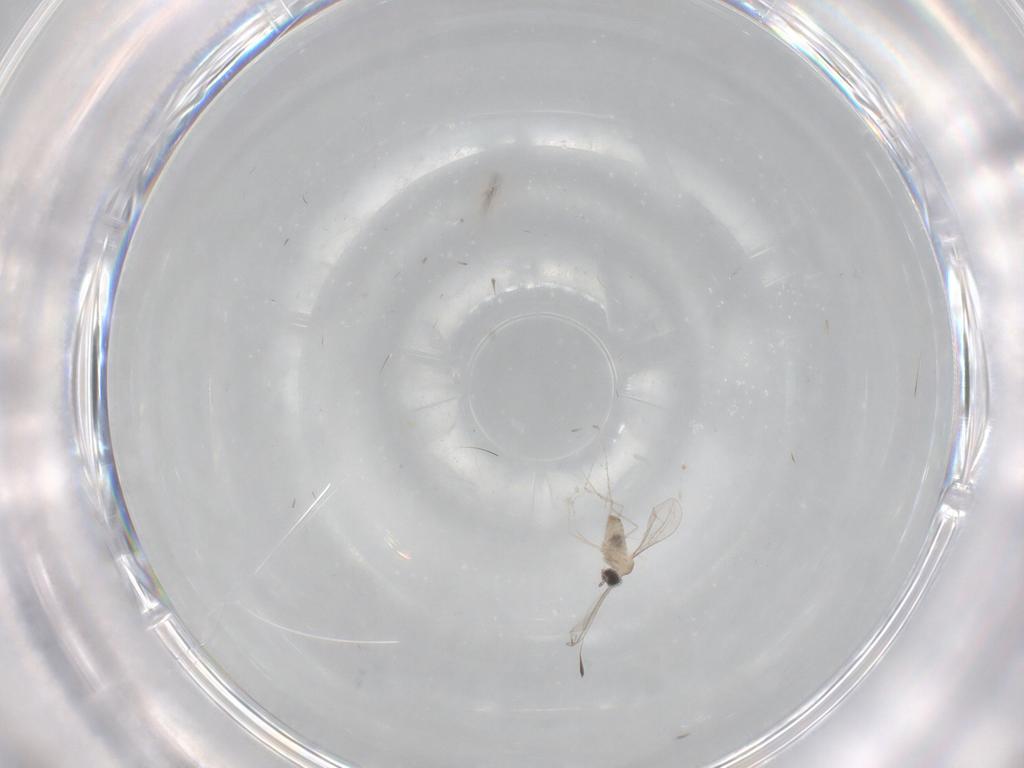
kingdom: Animalia
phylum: Arthropoda
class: Insecta
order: Diptera
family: Cecidomyiidae
